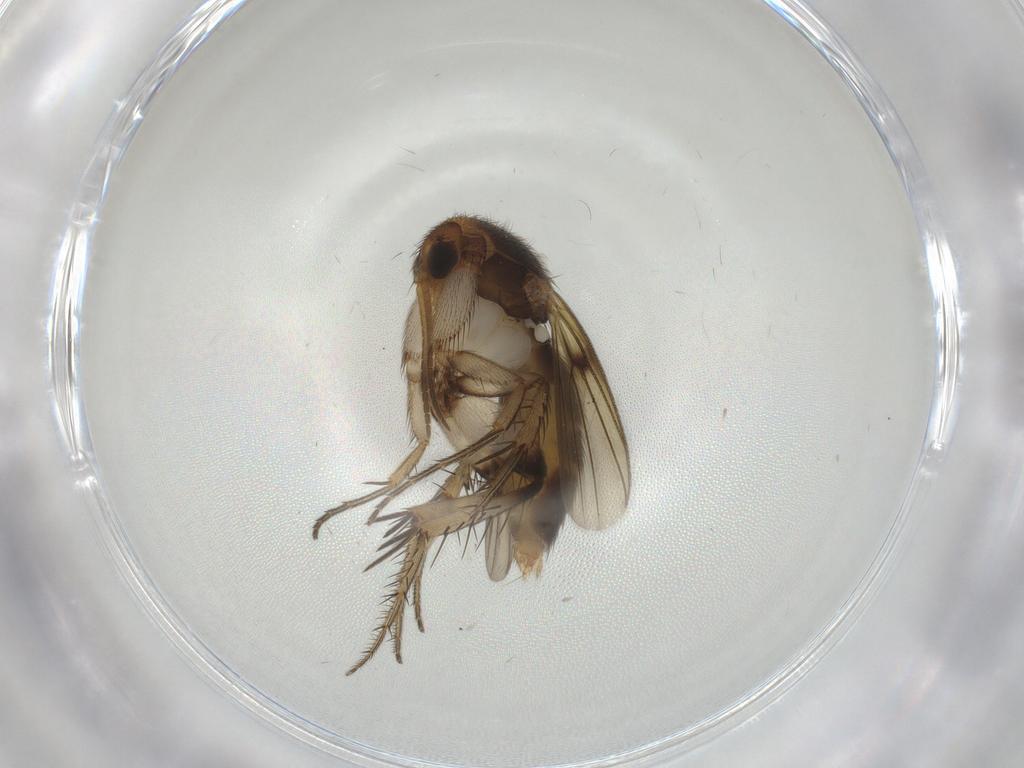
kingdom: Animalia
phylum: Arthropoda
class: Insecta
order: Diptera
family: Mycetophilidae
